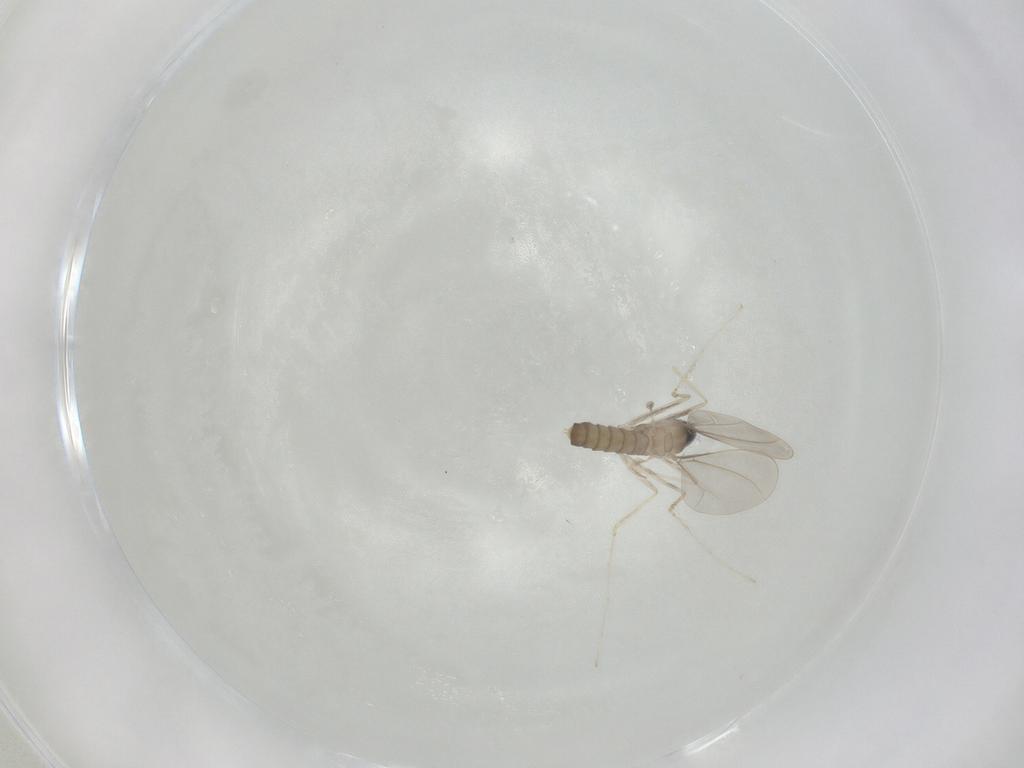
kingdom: Animalia
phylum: Arthropoda
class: Insecta
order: Diptera
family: Cecidomyiidae
